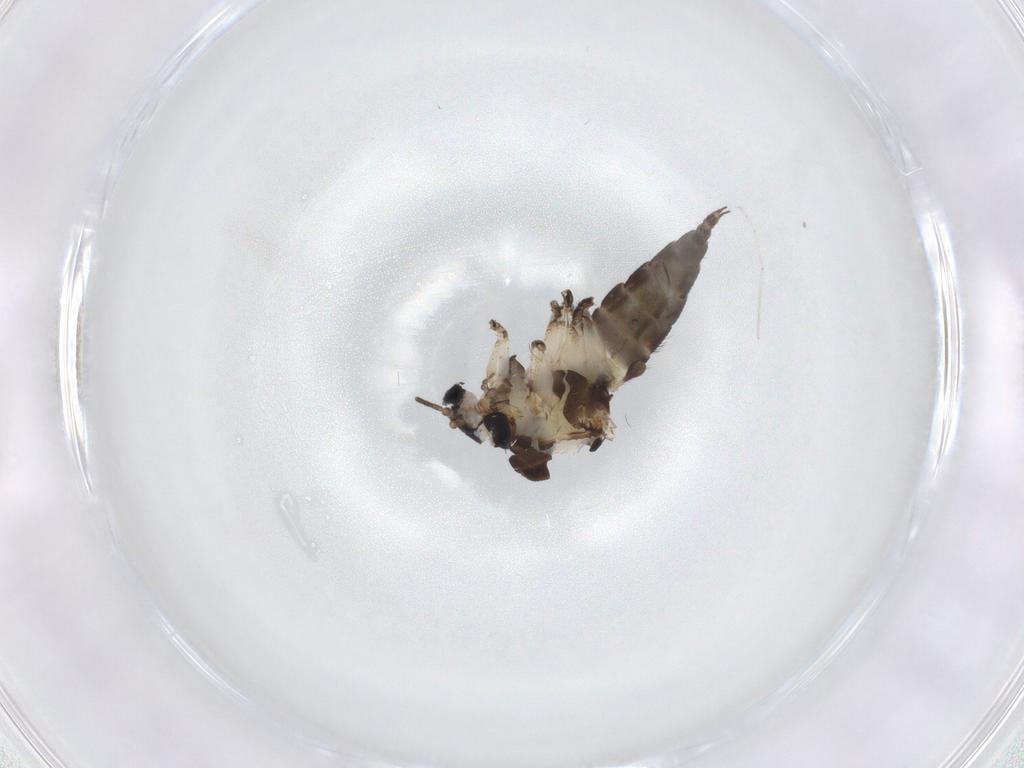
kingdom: Animalia
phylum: Arthropoda
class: Insecta
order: Diptera
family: Sciaridae
